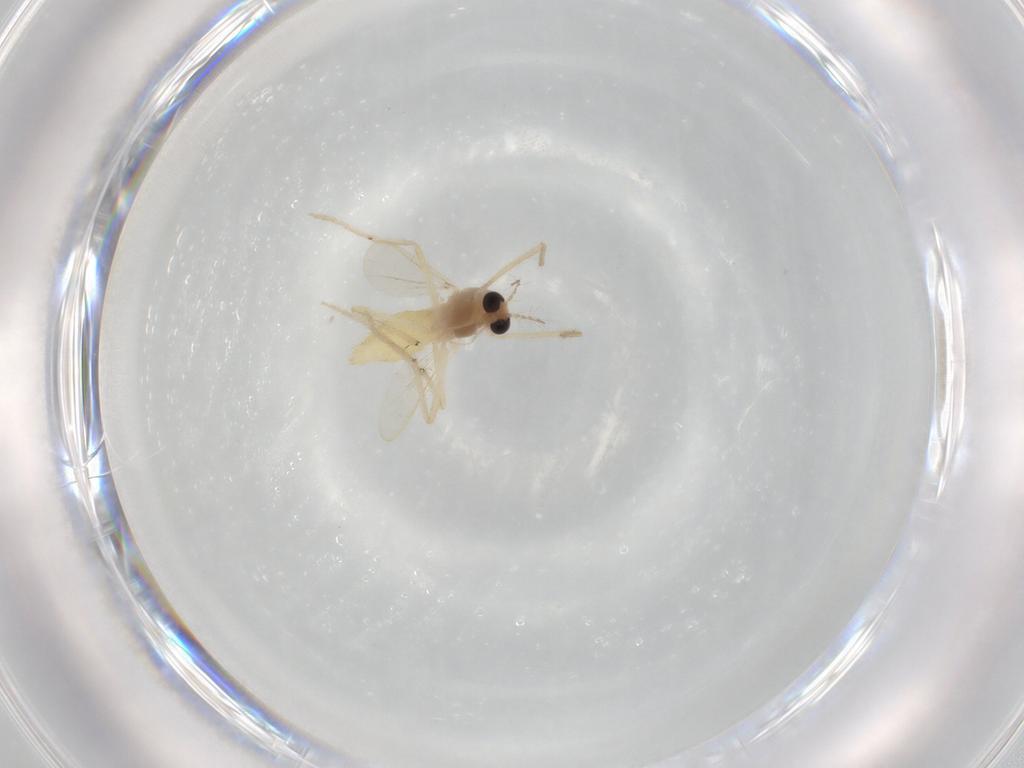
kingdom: Animalia
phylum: Arthropoda
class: Insecta
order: Diptera
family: Chironomidae
